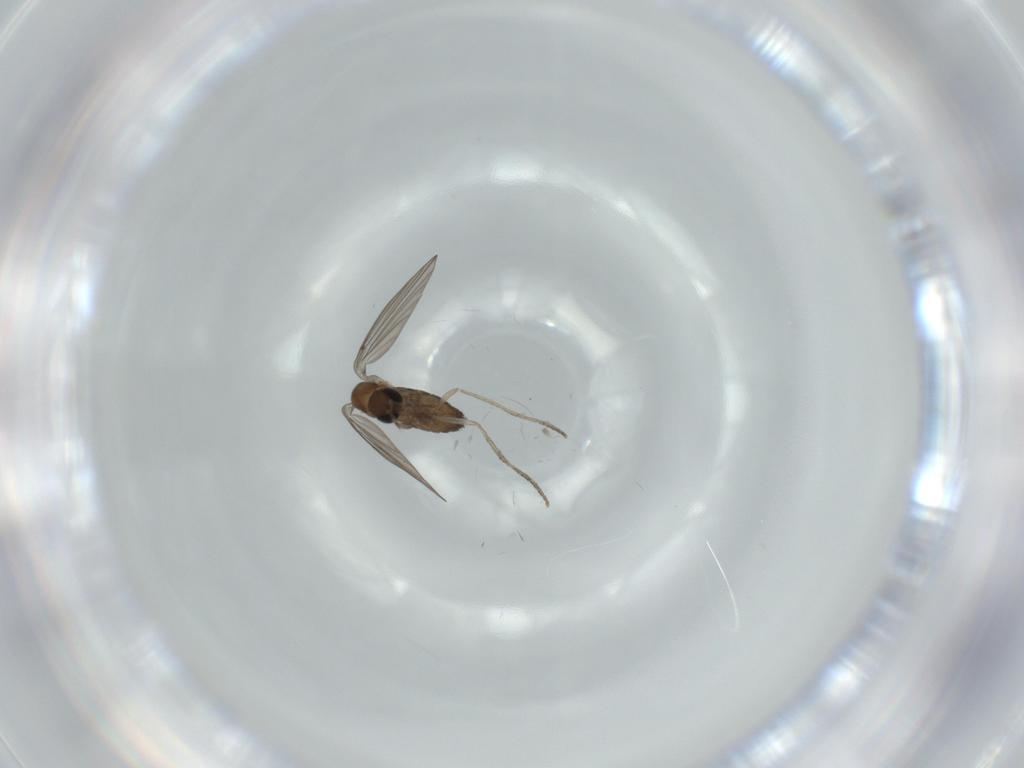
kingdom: Animalia
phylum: Arthropoda
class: Insecta
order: Diptera
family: Psychodidae
